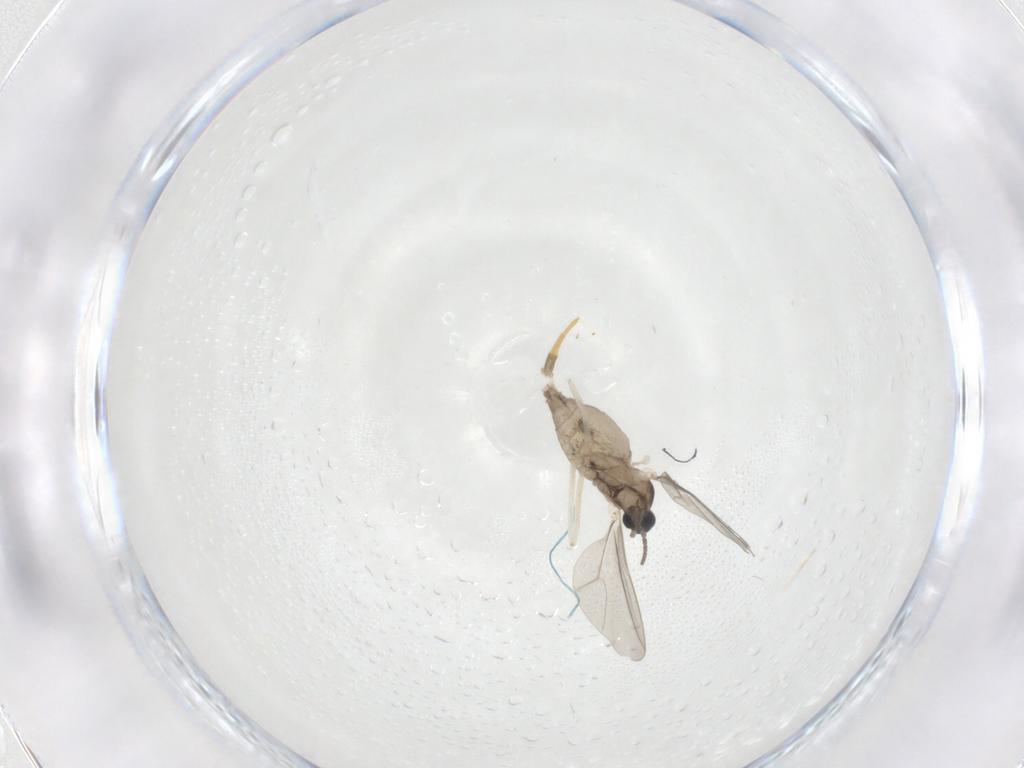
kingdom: Animalia
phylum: Arthropoda
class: Insecta
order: Diptera
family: Cecidomyiidae
